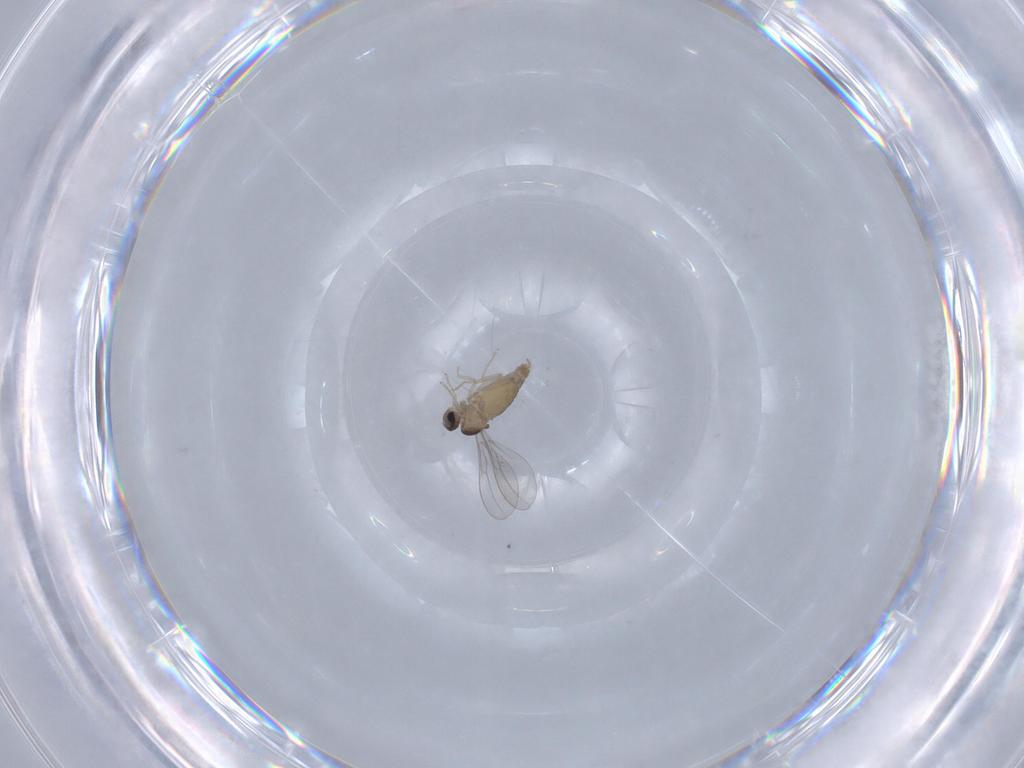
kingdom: Animalia
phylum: Arthropoda
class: Insecta
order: Diptera
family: Cecidomyiidae
